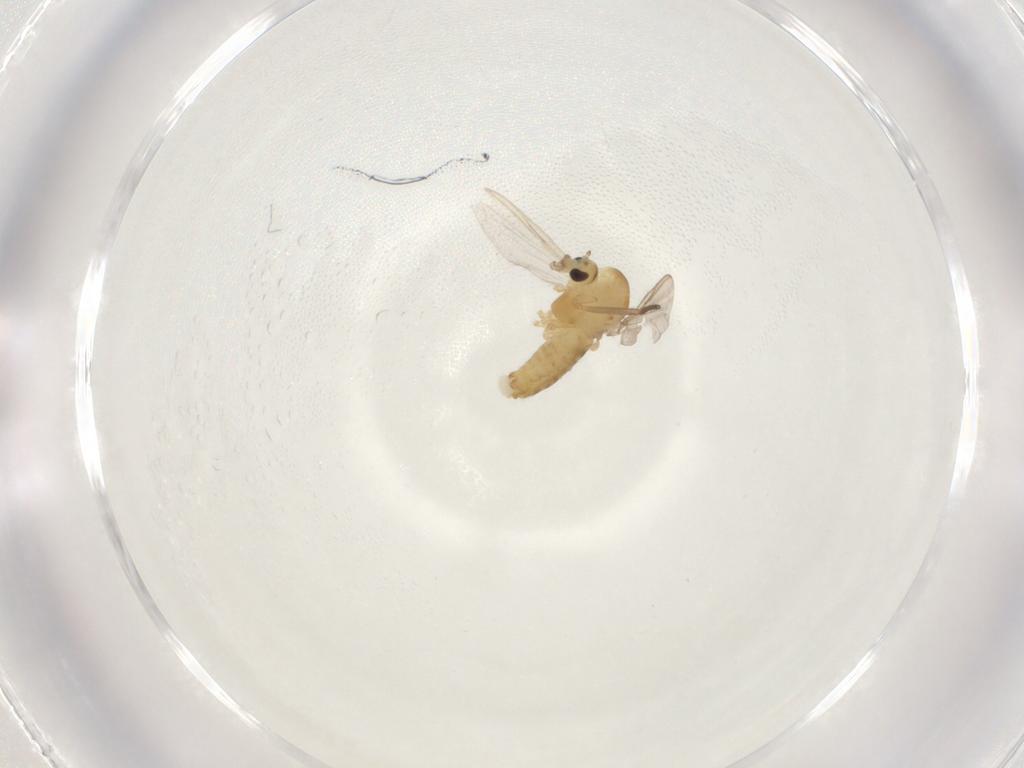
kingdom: Animalia
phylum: Arthropoda
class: Insecta
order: Diptera
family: Chironomidae
